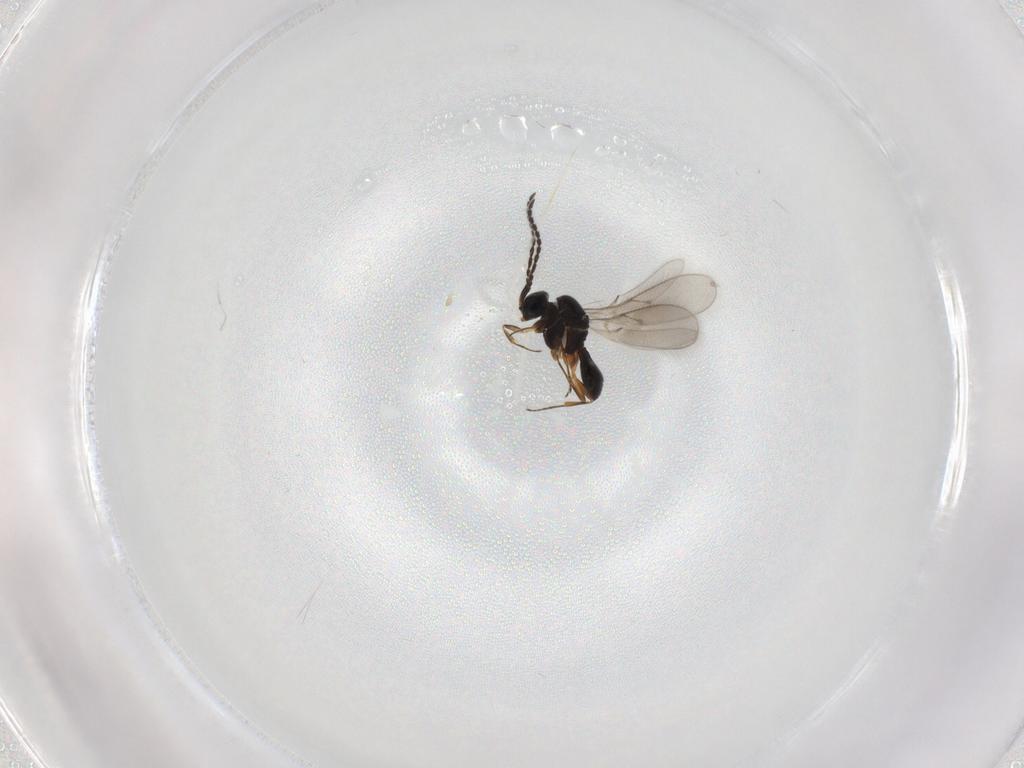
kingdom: Animalia
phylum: Arthropoda
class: Insecta
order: Hymenoptera
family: Scelionidae
